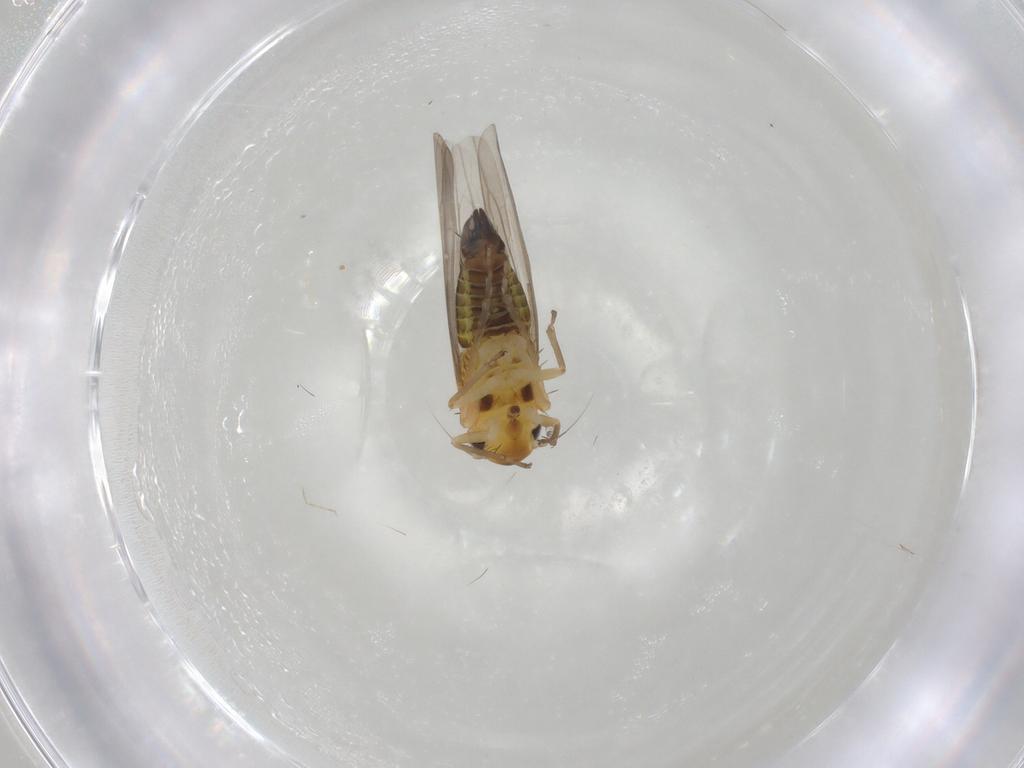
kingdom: Animalia
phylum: Arthropoda
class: Insecta
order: Hemiptera
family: Cicadellidae
